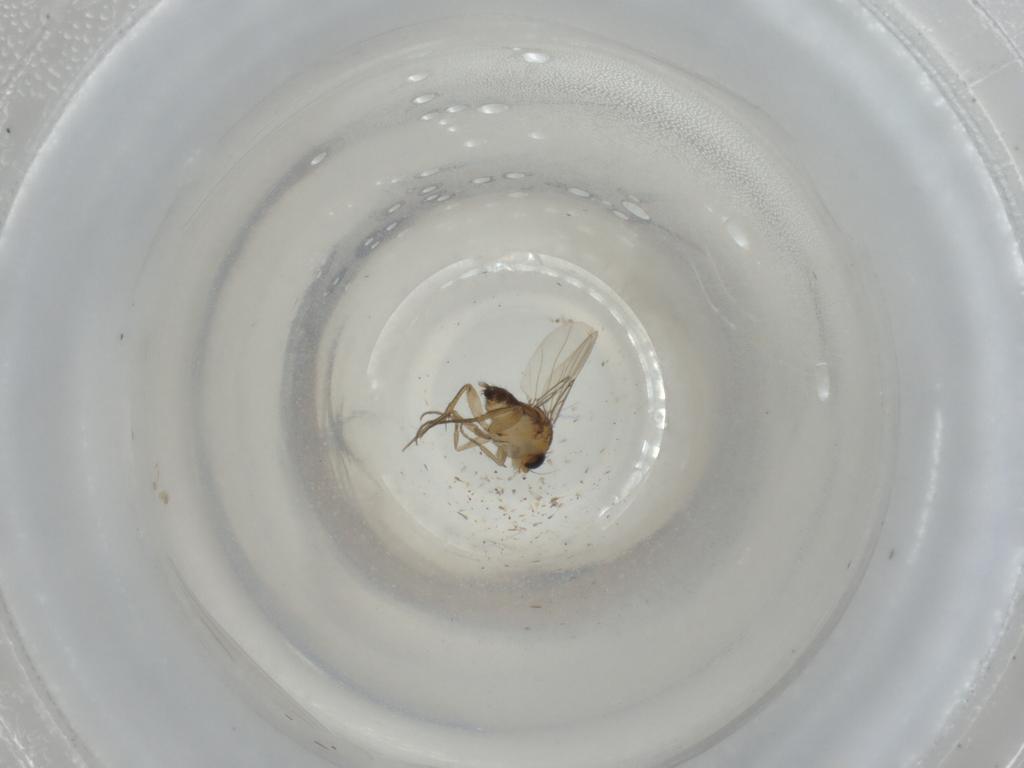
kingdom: Animalia
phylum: Arthropoda
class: Insecta
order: Diptera
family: Phoridae
